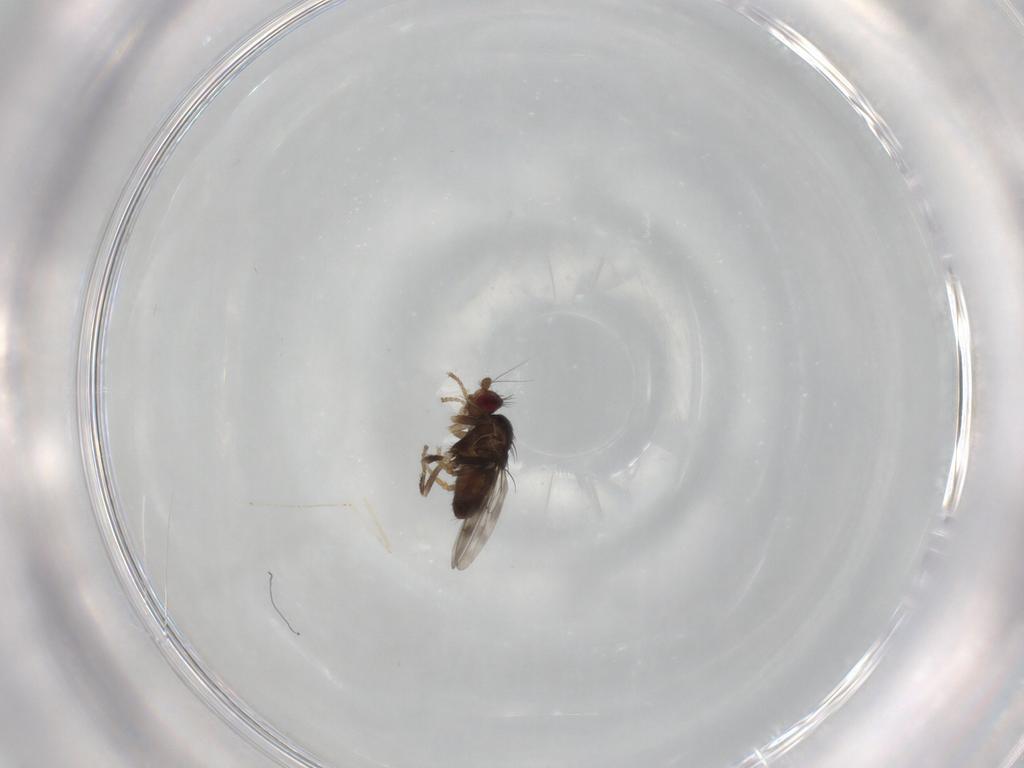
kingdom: Animalia
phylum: Arthropoda
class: Insecta
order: Diptera
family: Sphaeroceridae
